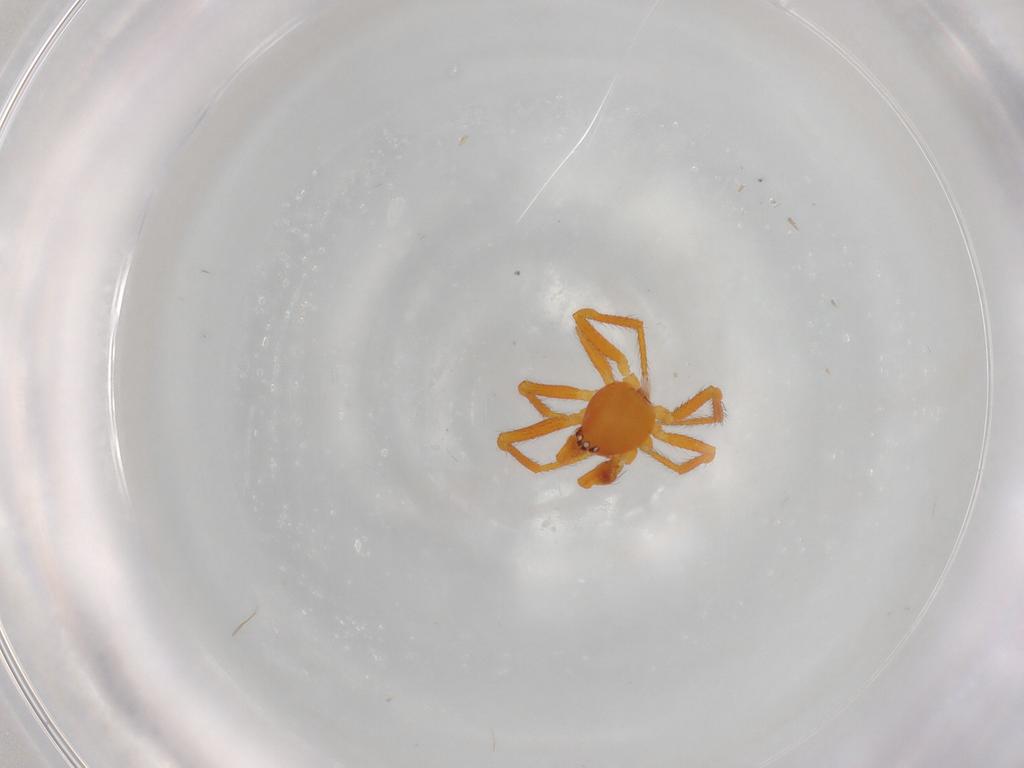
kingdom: Animalia
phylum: Arthropoda
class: Arachnida
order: Araneae
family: Theridiidae
